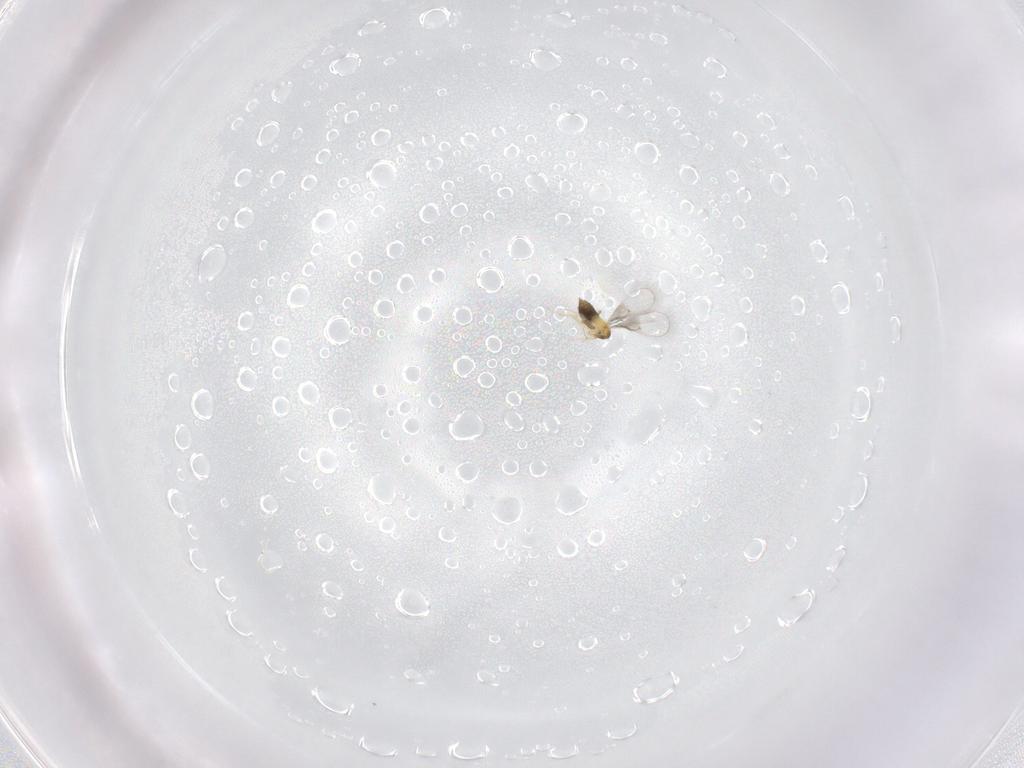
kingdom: Animalia
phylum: Arthropoda
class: Insecta
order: Hymenoptera
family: Trichogrammatidae
